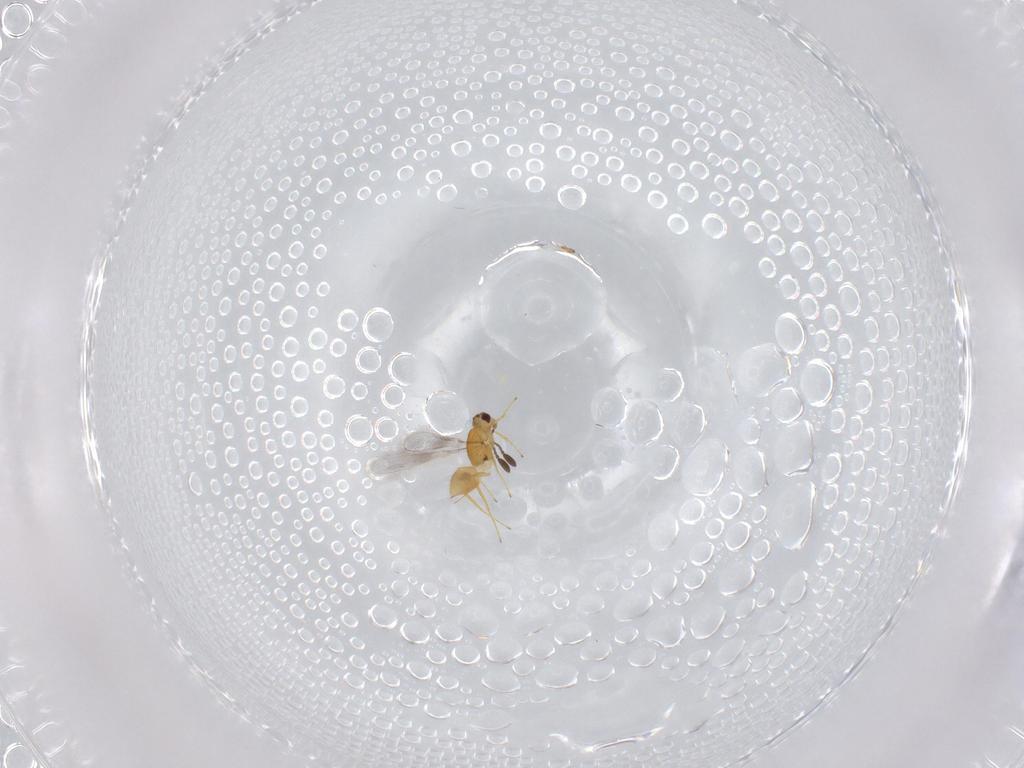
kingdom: Animalia
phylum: Arthropoda
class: Insecta
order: Hymenoptera
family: Mymaridae
